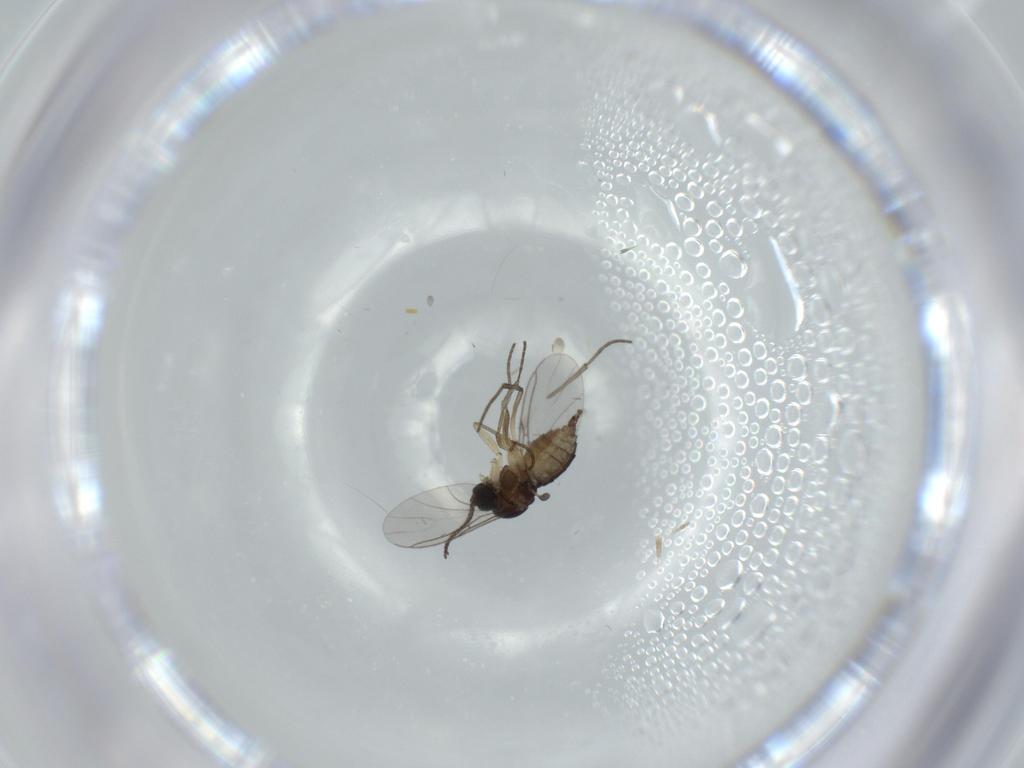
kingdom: Animalia
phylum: Arthropoda
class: Insecta
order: Diptera
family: Sciaridae
